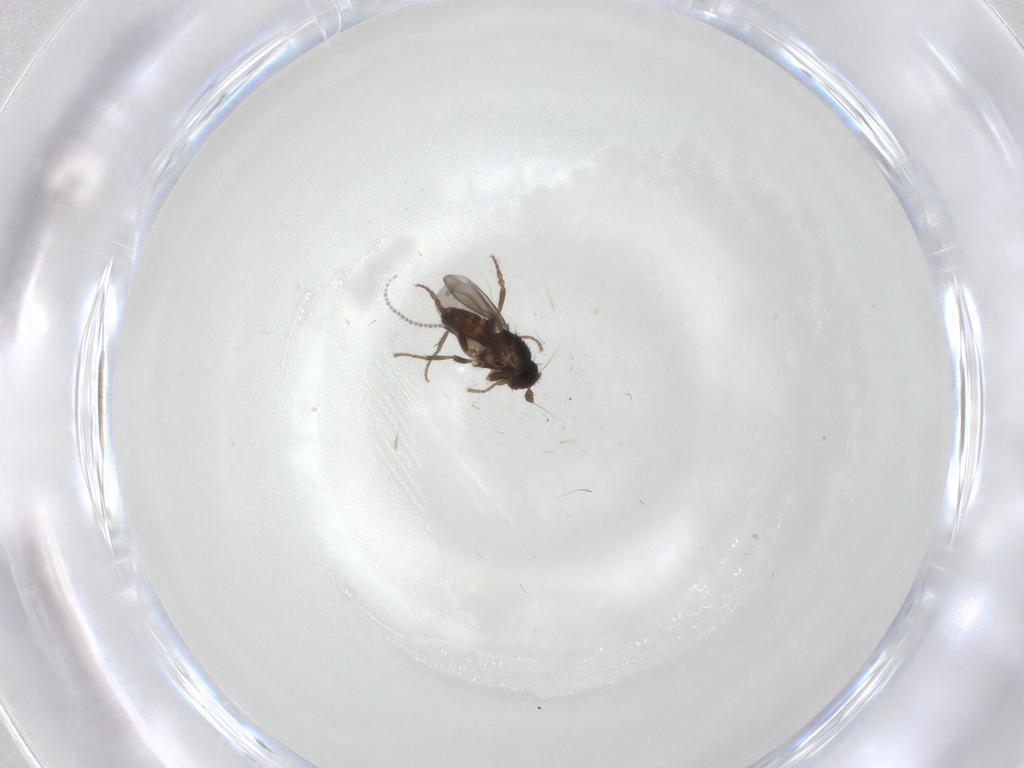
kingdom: Animalia
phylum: Arthropoda
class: Insecta
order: Diptera
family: Sphaeroceridae
